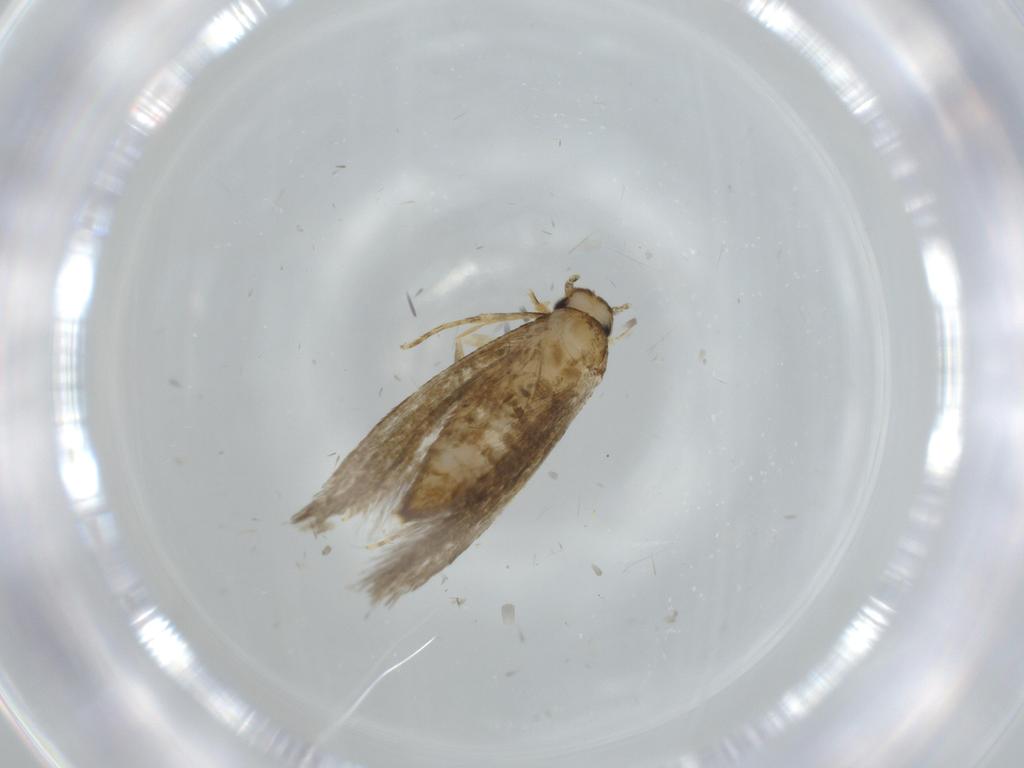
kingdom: Animalia
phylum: Arthropoda
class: Insecta
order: Lepidoptera
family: Tineidae
